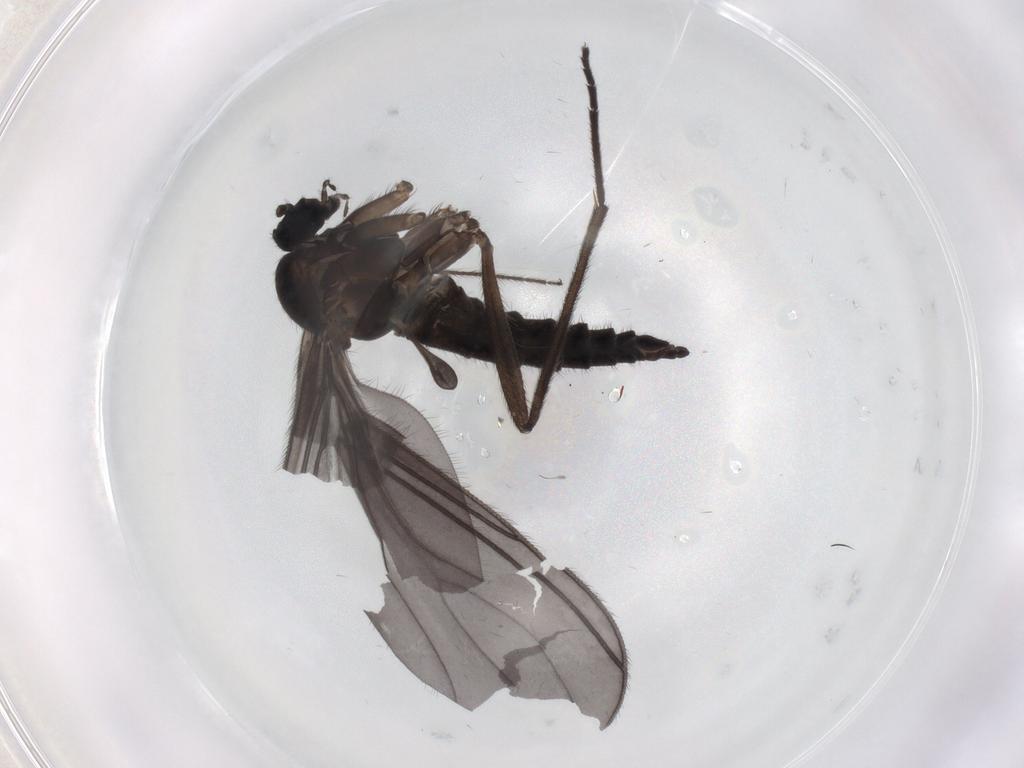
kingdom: Animalia
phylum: Arthropoda
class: Insecta
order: Diptera
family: Sciaridae
